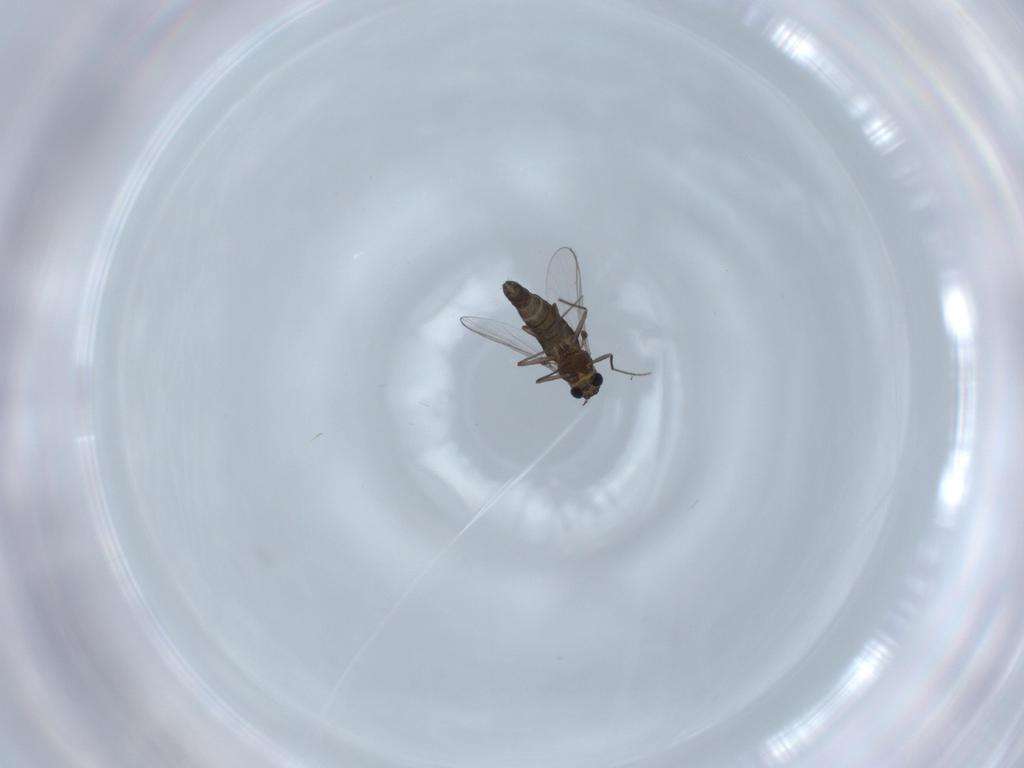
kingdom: Animalia
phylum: Arthropoda
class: Insecta
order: Diptera
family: Chironomidae
